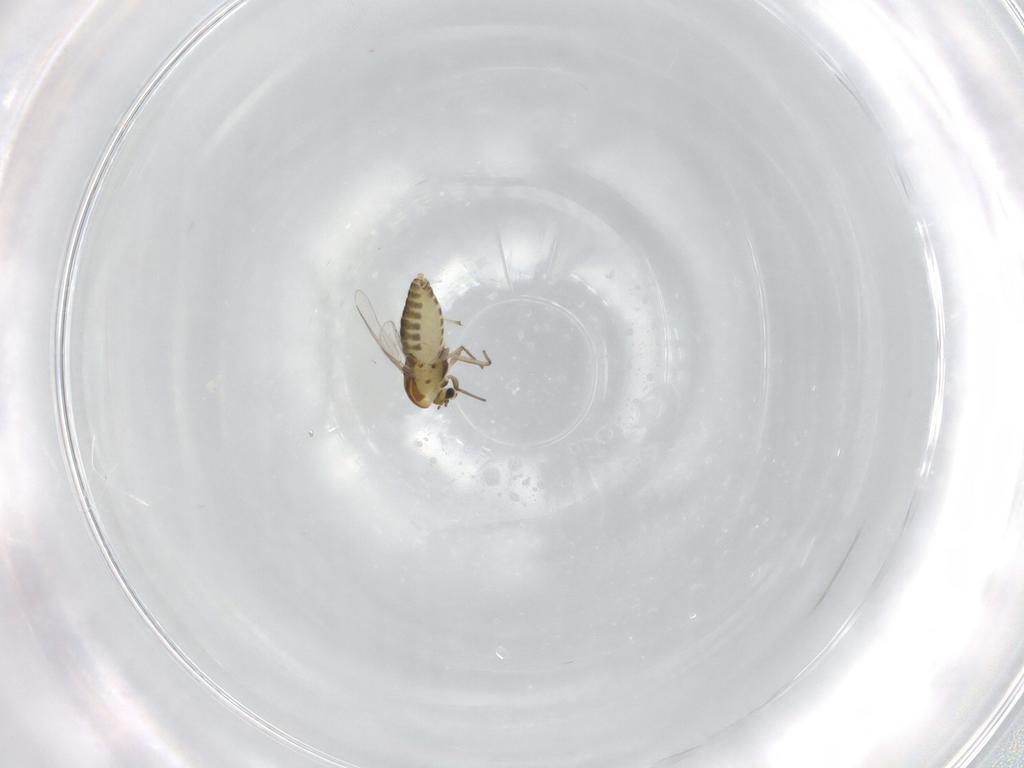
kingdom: Animalia
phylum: Arthropoda
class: Insecta
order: Diptera
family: Chironomidae
